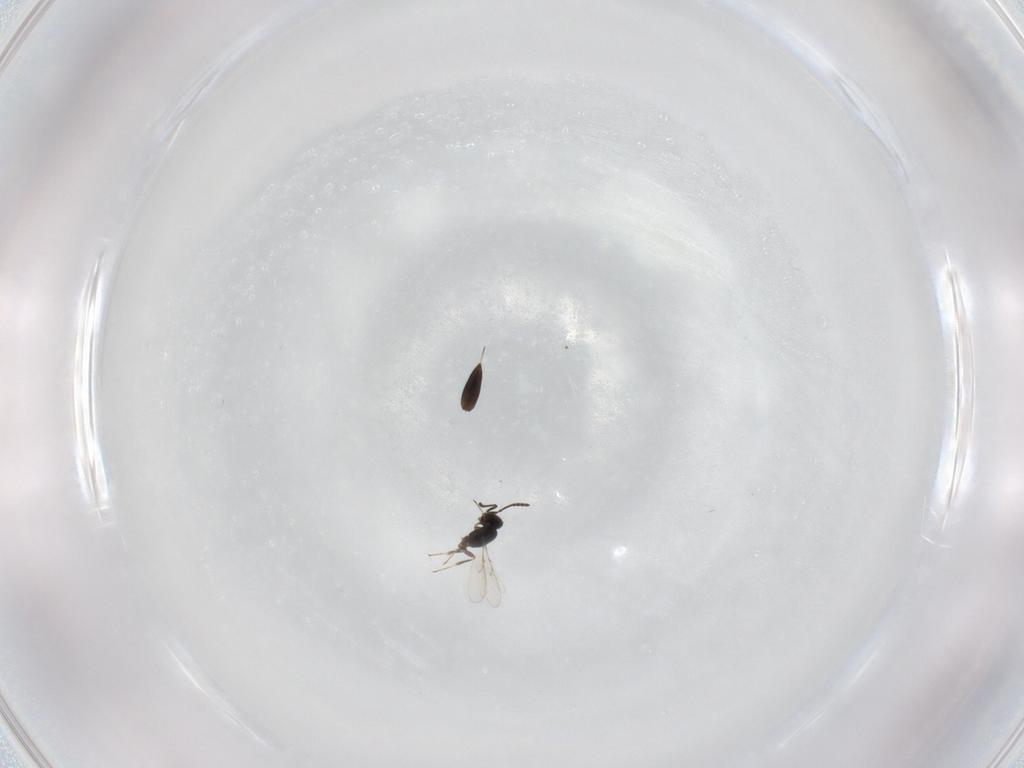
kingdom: Animalia
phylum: Arthropoda
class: Insecta
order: Hymenoptera
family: Scelionidae
